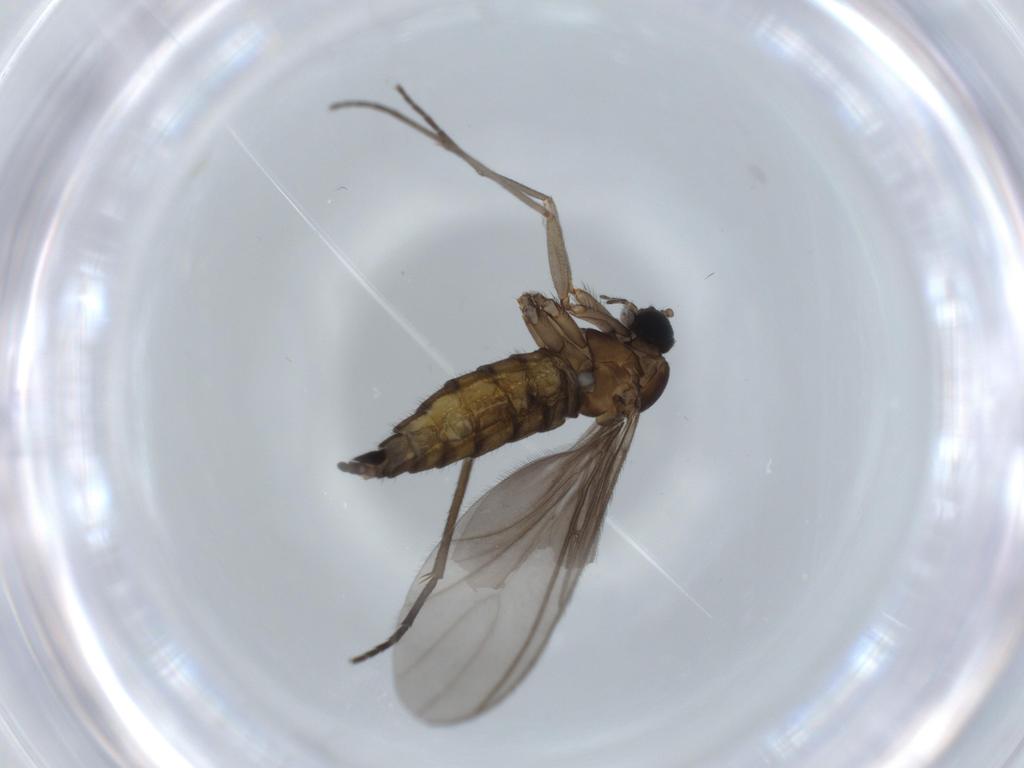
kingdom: Animalia
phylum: Arthropoda
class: Insecta
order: Diptera
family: Sciaridae
